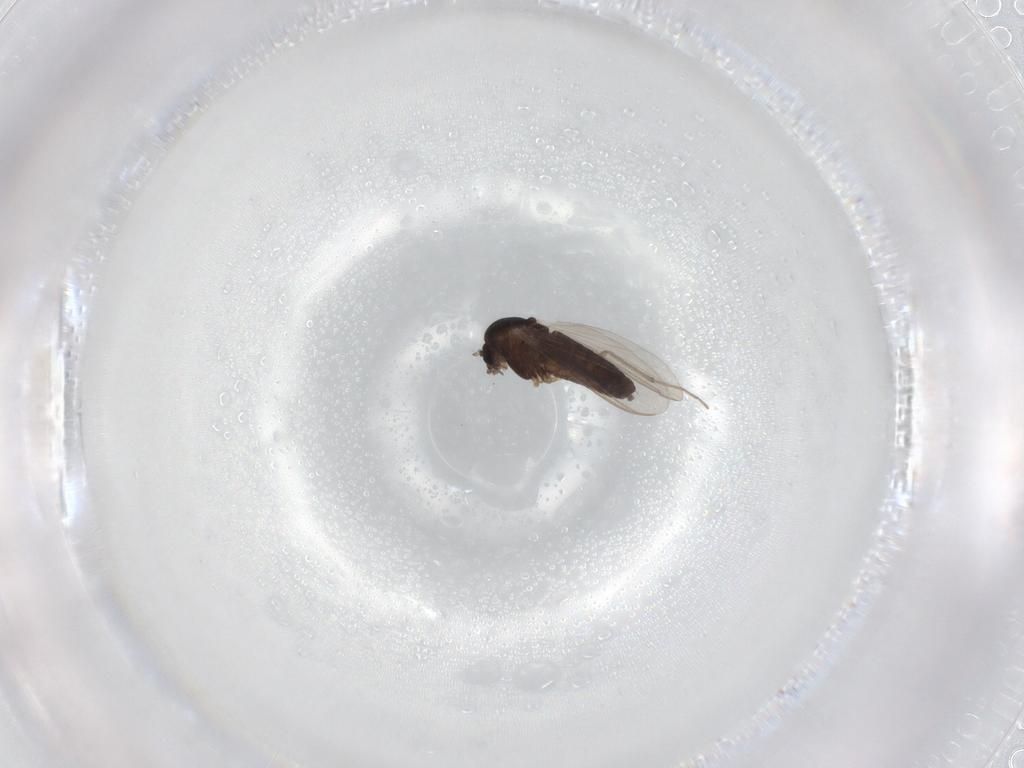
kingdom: Animalia
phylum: Arthropoda
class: Insecta
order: Diptera
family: Chironomidae
